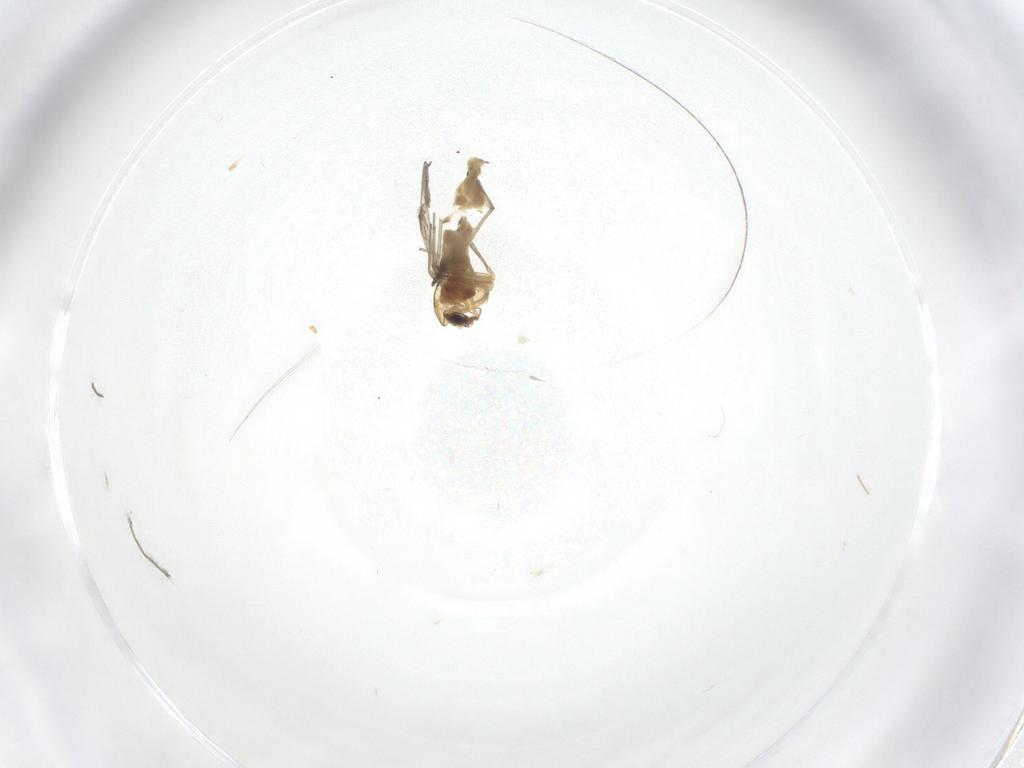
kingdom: Animalia
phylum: Arthropoda
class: Insecta
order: Diptera
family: Chironomidae
